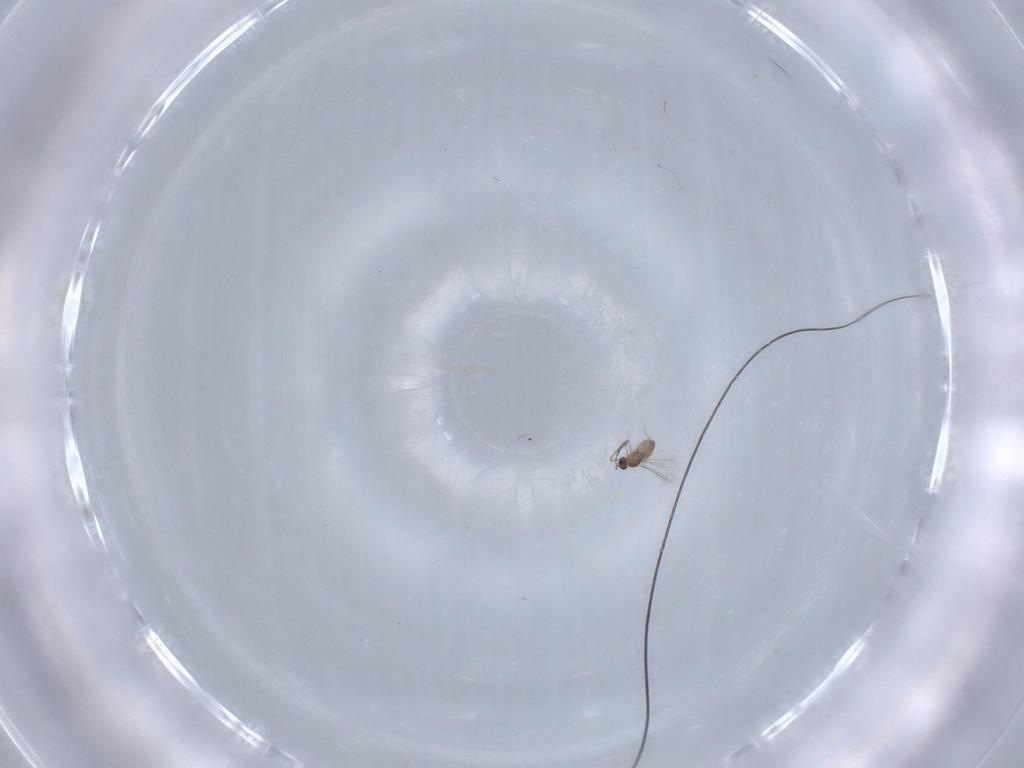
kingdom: Animalia
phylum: Arthropoda
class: Insecta
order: Hymenoptera
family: Mymaridae
